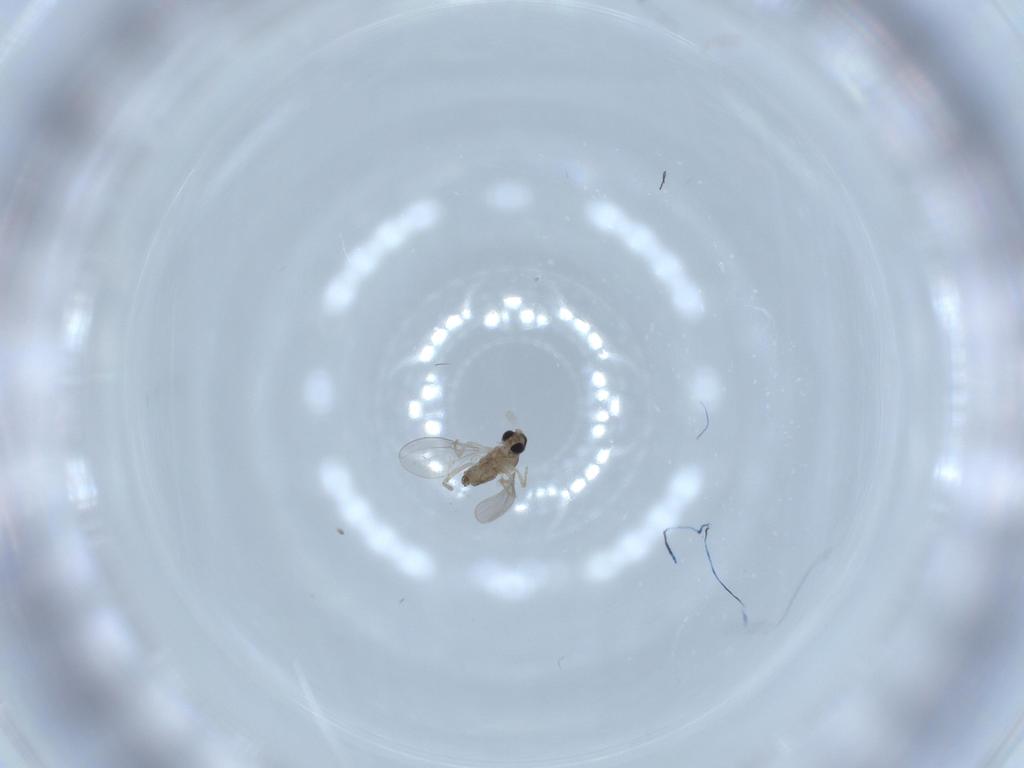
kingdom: Animalia
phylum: Arthropoda
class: Insecta
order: Diptera
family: Cecidomyiidae
